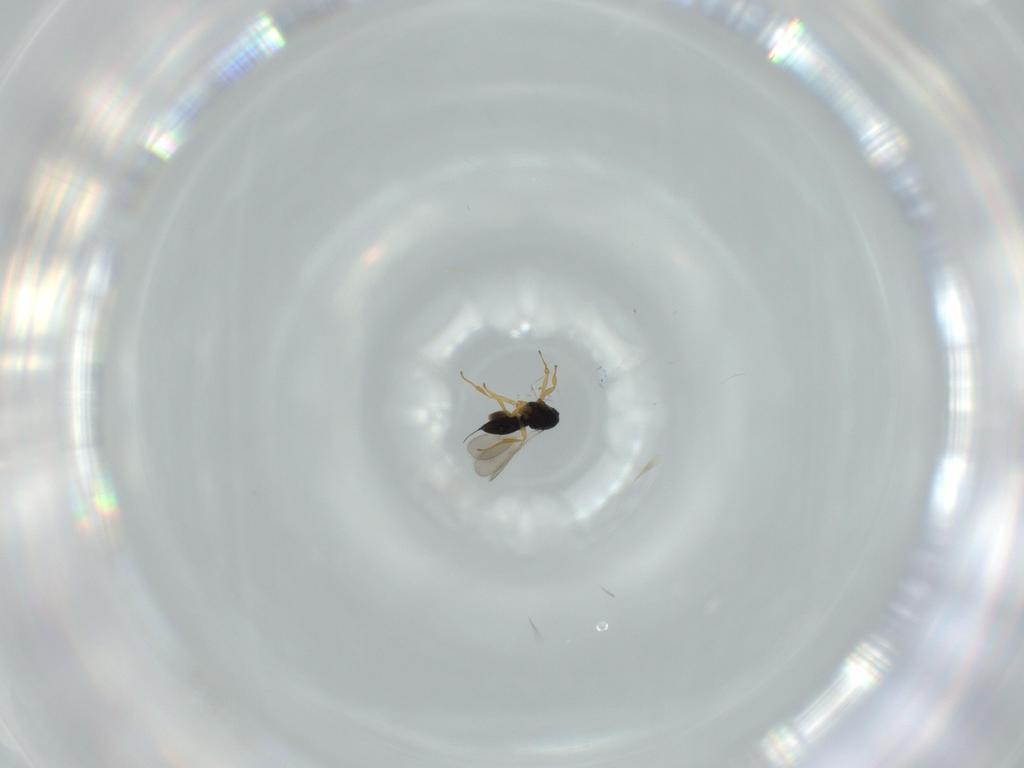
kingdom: Animalia
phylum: Arthropoda
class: Insecta
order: Hymenoptera
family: Scelionidae
